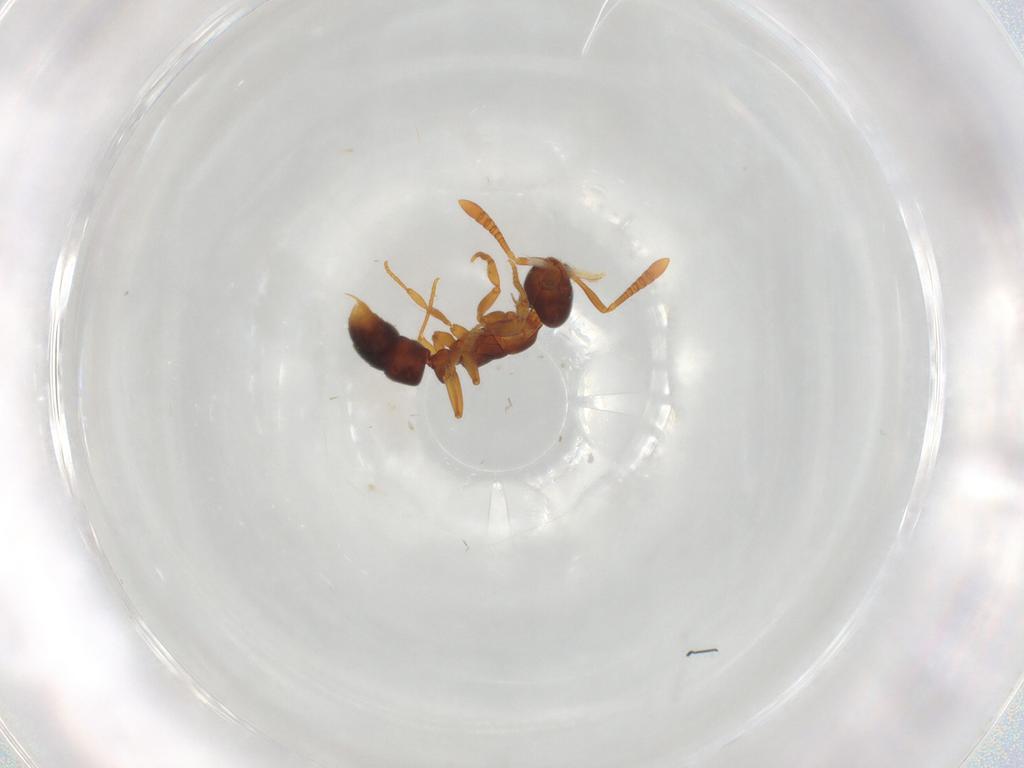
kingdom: Animalia
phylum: Arthropoda
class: Insecta
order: Hymenoptera
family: Formicidae
